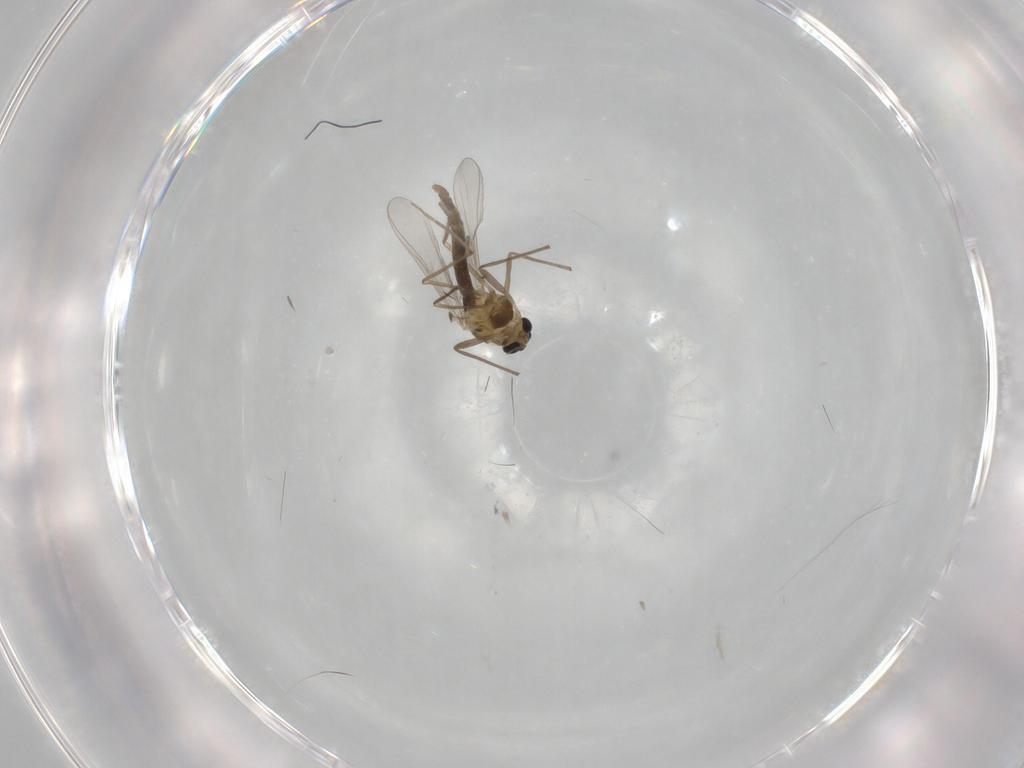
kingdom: Animalia
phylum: Arthropoda
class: Insecta
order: Diptera
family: Chironomidae
